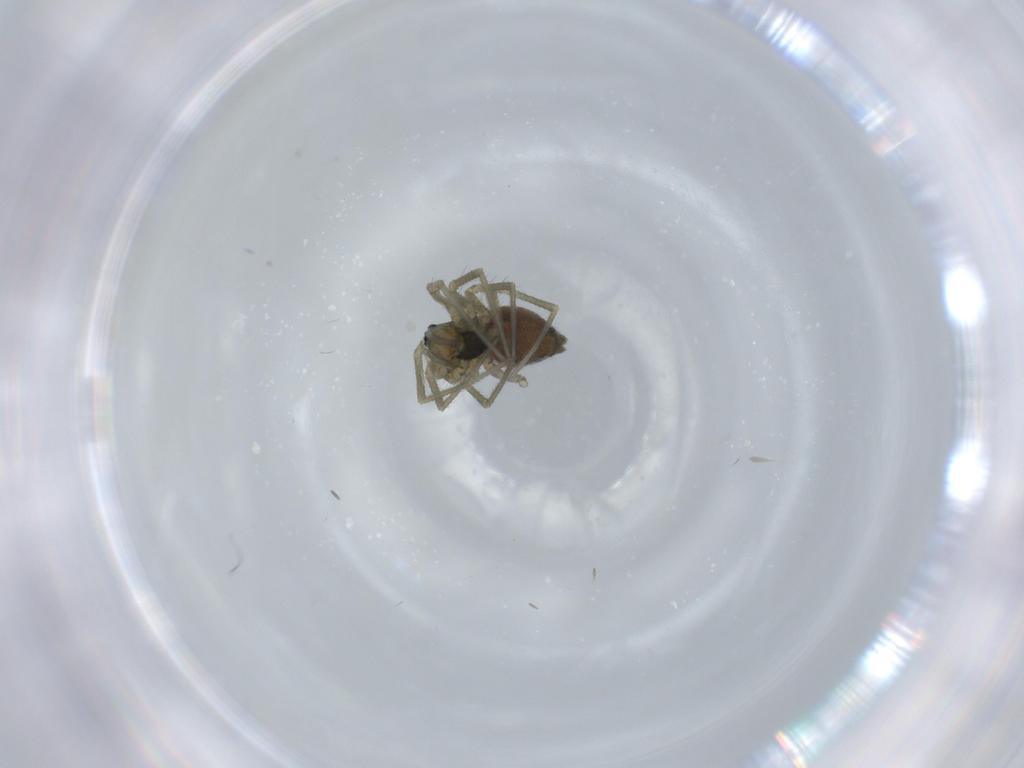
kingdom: Animalia
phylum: Arthropoda
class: Arachnida
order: Araneae
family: Linyphiidae
